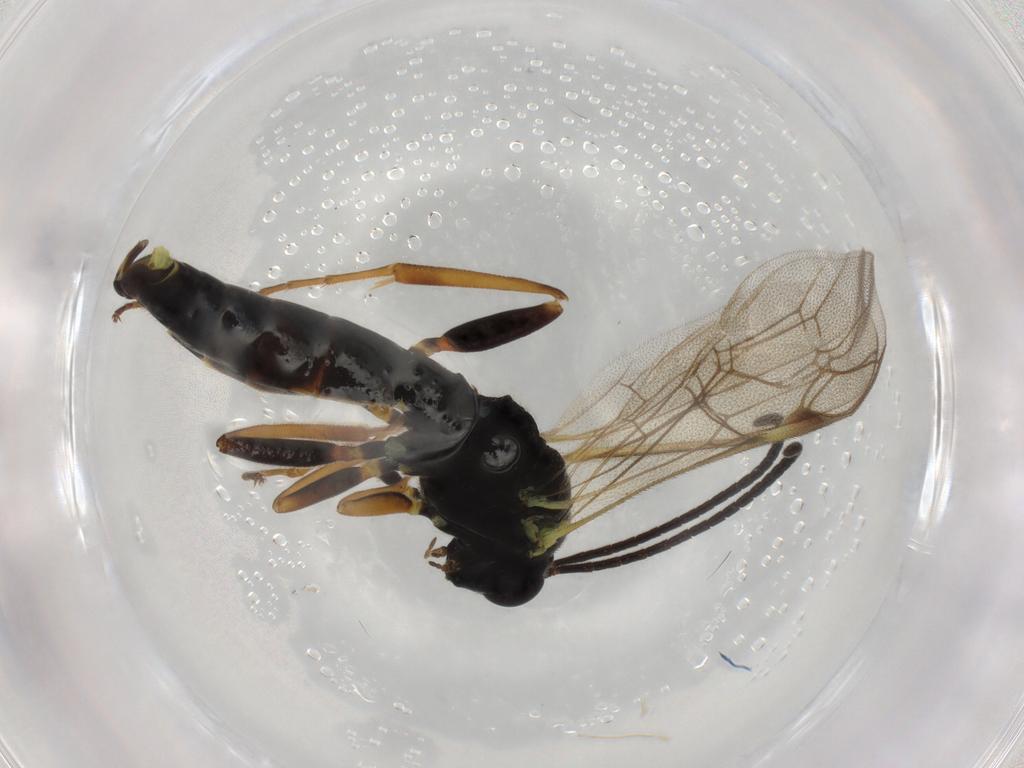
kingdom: Animalia
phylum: Arthropoda
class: Insecta
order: Hymenoptera
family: Ichneumonidae
